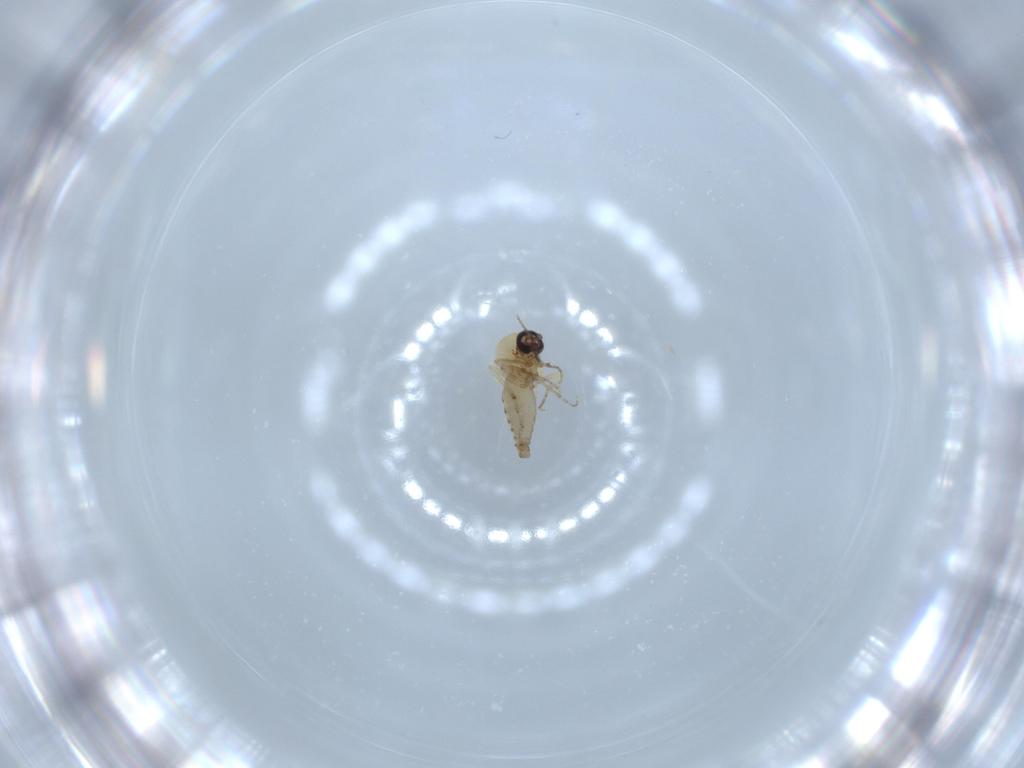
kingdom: Animalia
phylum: Arthropoda
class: Insecta
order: Diptera
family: Ceratopogonidae
